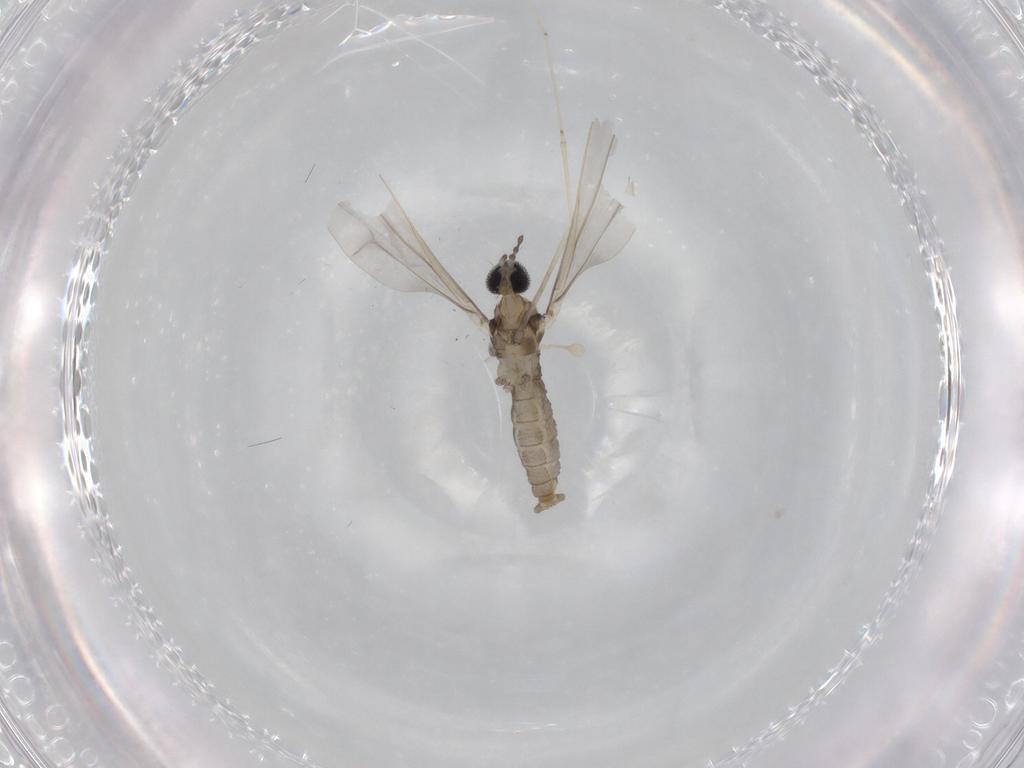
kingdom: Animalia
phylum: Arthropoda
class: Insecta
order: Diptera
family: Cecidomyiidae
